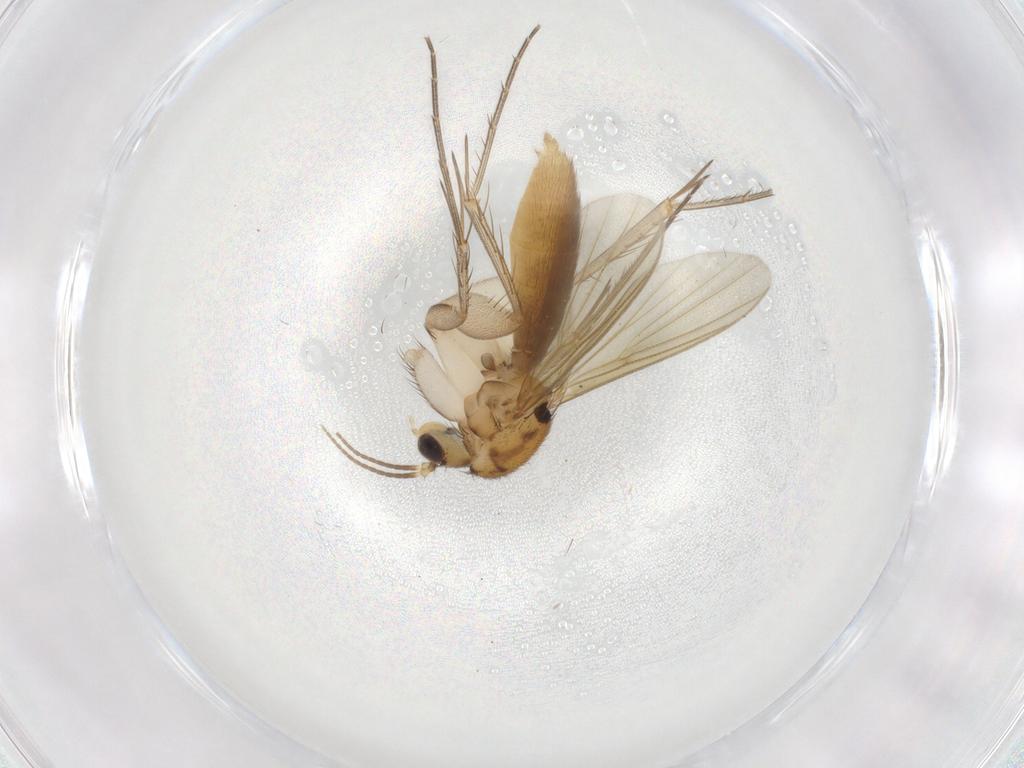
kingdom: Animalia
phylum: Arthropoda
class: Insecta
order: Diptera
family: Mycetophilidae
